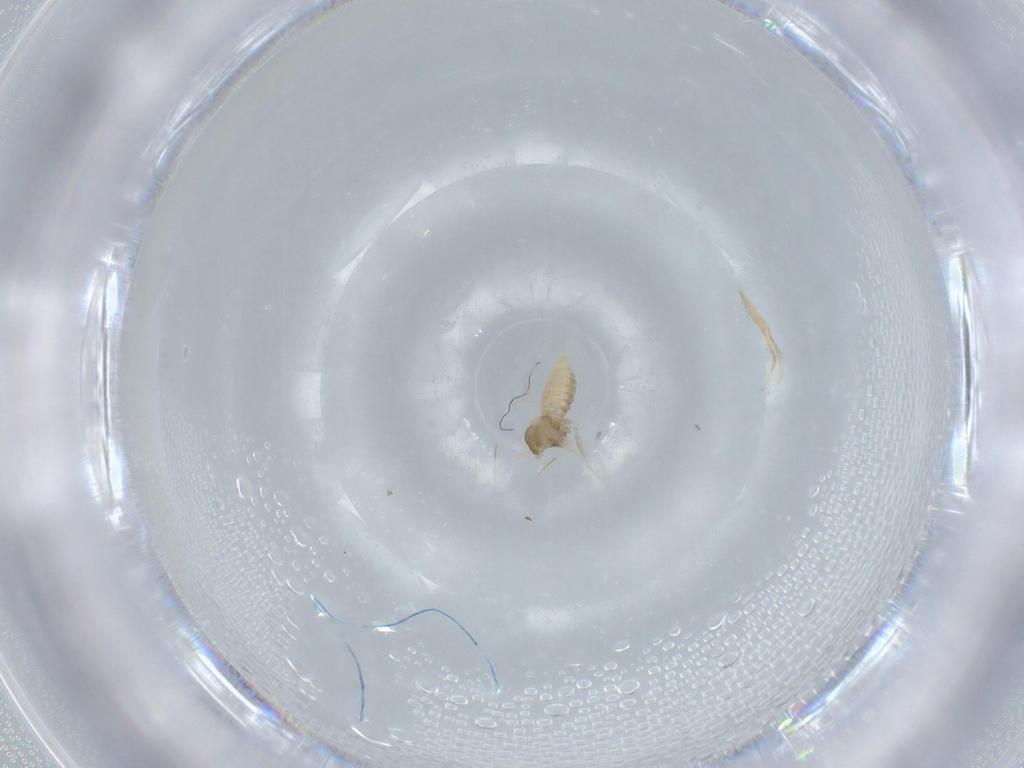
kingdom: Animalia
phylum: Arthropoda
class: Insecta
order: Diptera
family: Cecidomyiidae
